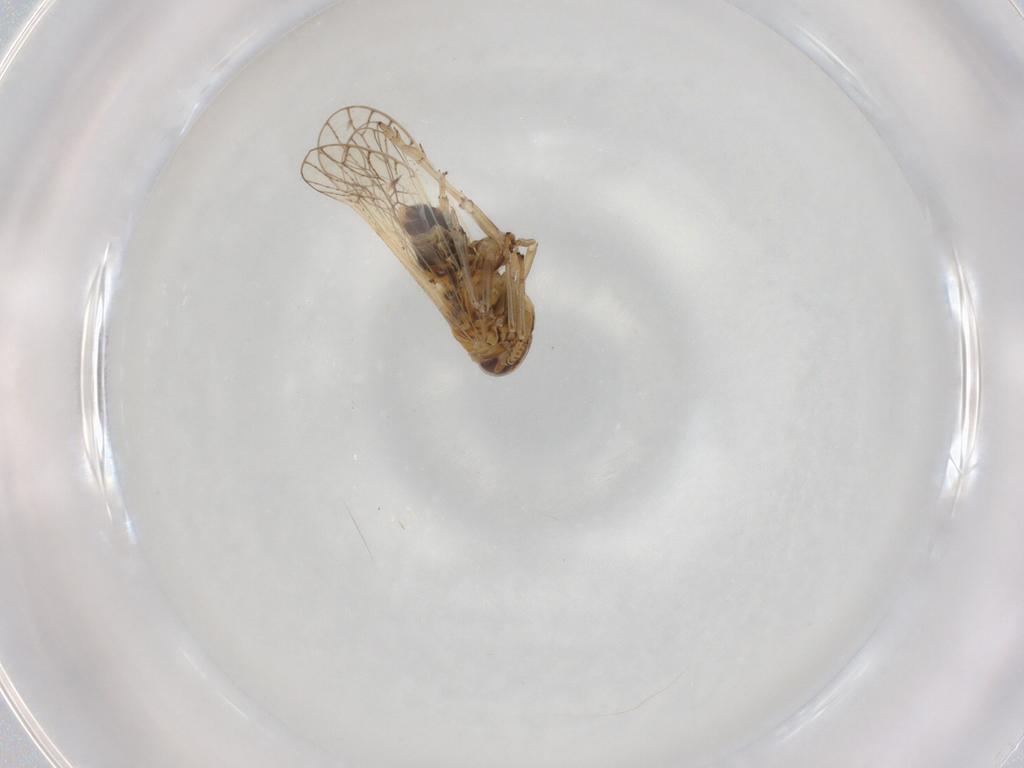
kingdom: Animalia
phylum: Arthropoda
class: Insecta
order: Hemiptera
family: Delphacidae
